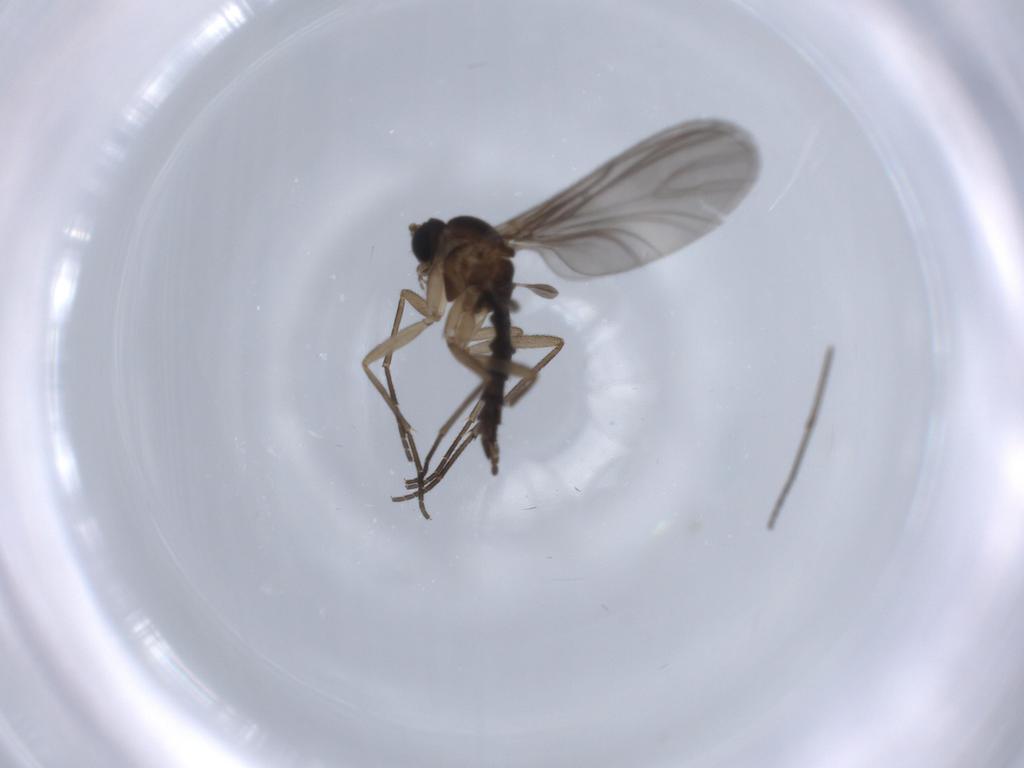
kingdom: Animalia
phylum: Arthropoda
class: Insecta
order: Diptera
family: Sciaridae
